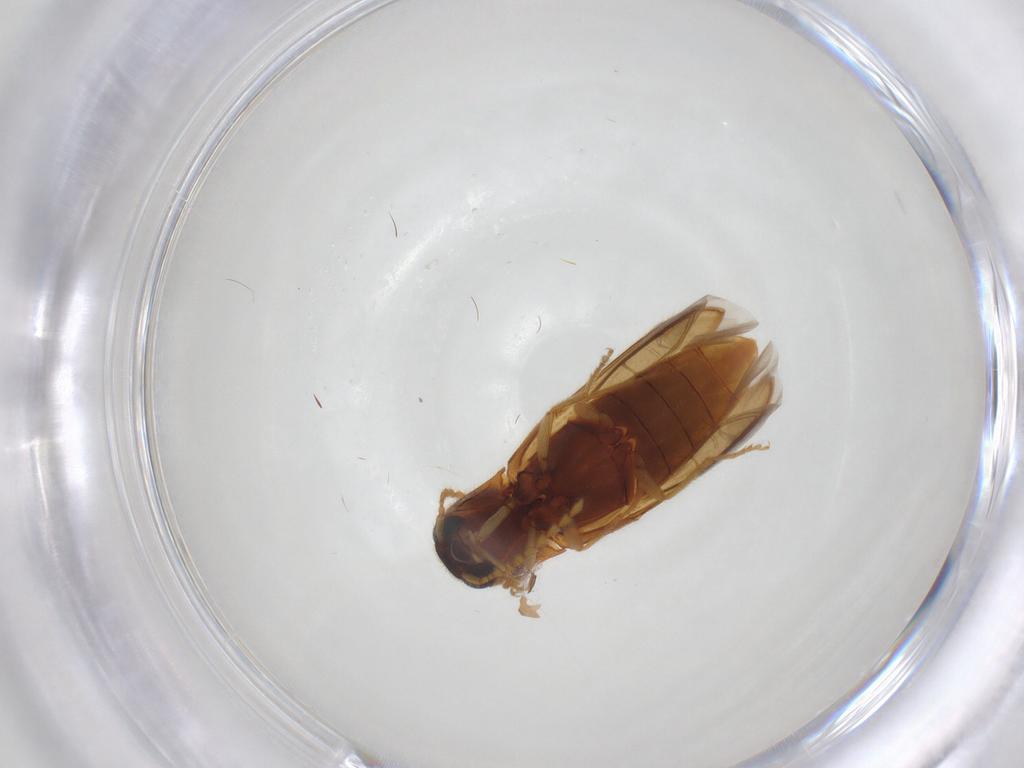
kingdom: Animalia
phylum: Arthropoda
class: Insecta
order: Coleoptera
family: Elateridae
